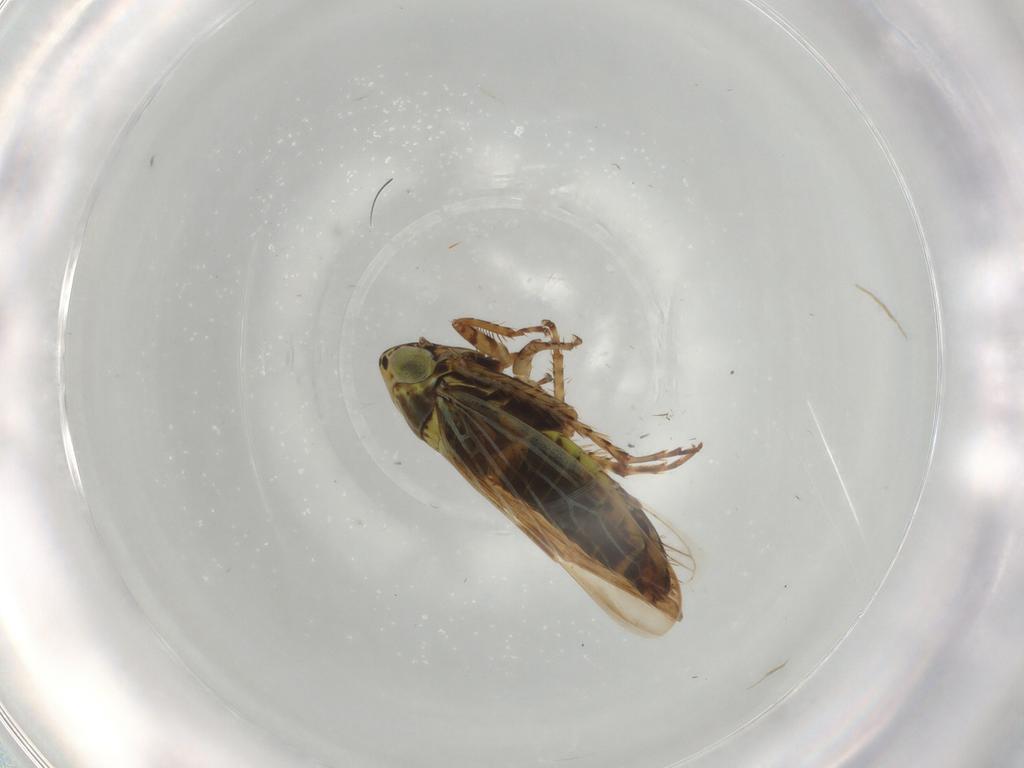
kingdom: Animalia
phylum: Arthropoda
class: Insecta
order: Hemiptera
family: Cicadellidae
